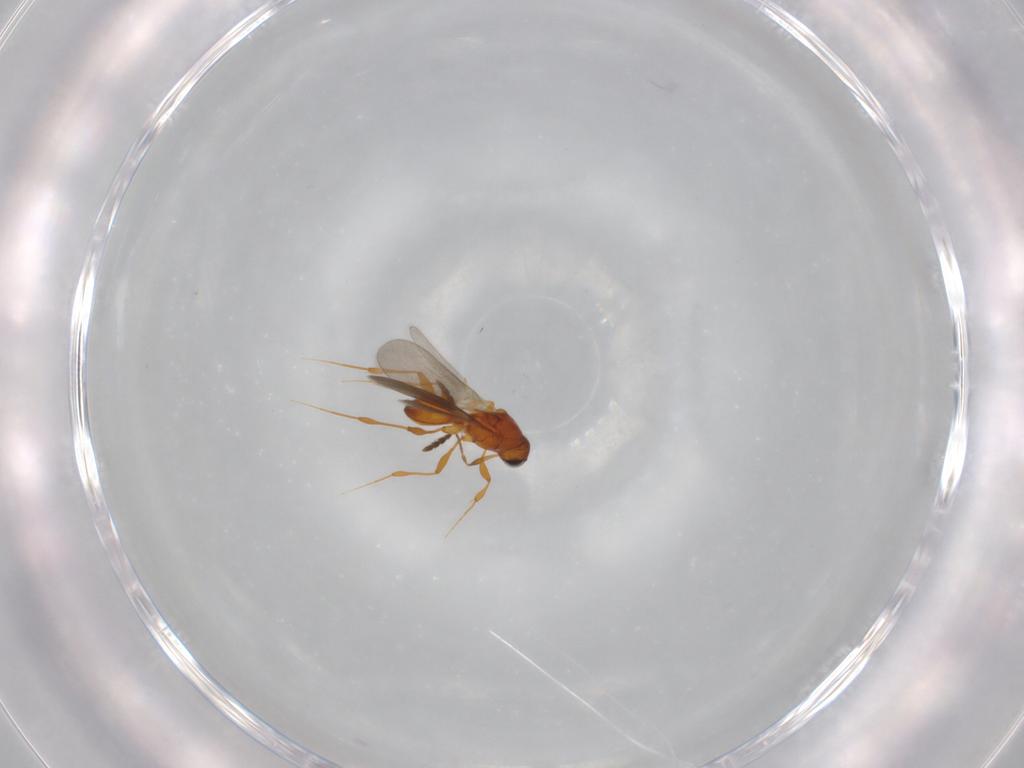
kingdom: Animalia
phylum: Arthropoda
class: Insecta
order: Hymenoptera
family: Platygastridae
